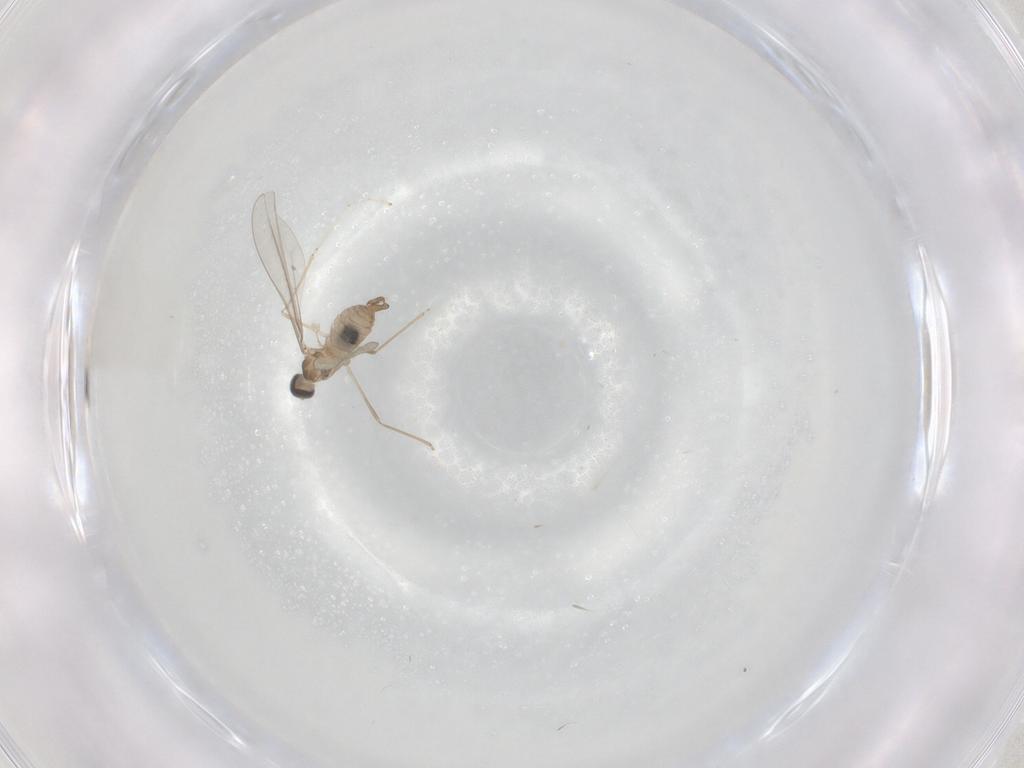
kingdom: Animalia
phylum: Arthropoda
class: Insecta
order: Diptera
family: Cecidomyiidae
